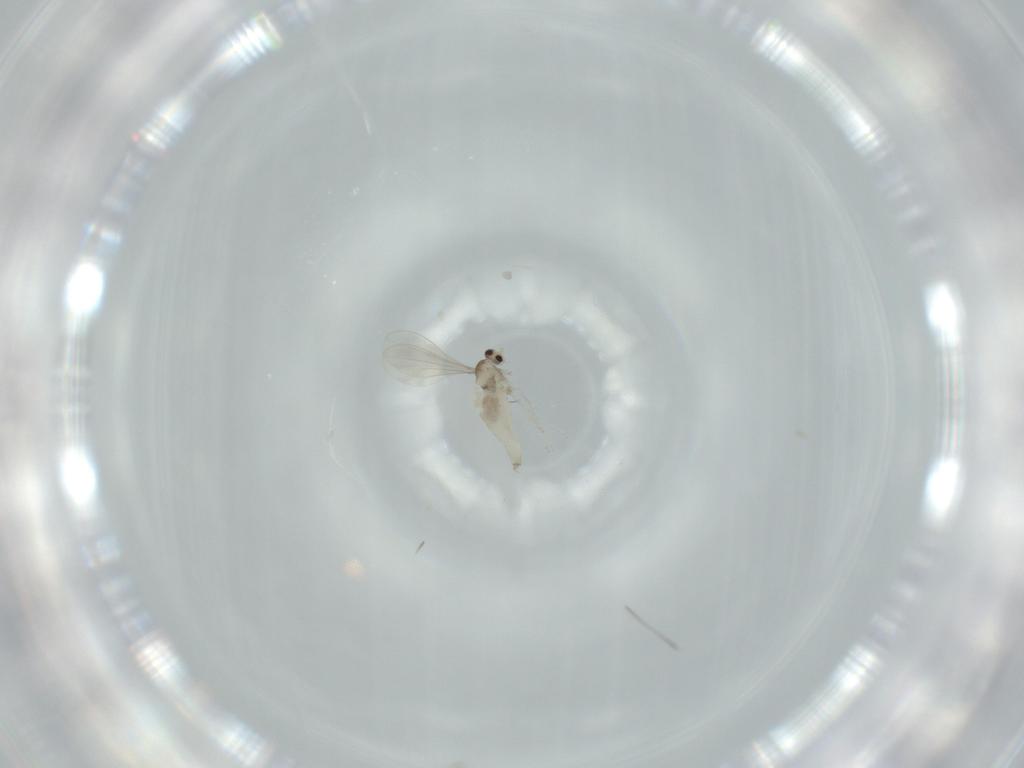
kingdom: Animalia
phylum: Arthropoda
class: Insecta
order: Diptera
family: Cecidomyiidae
